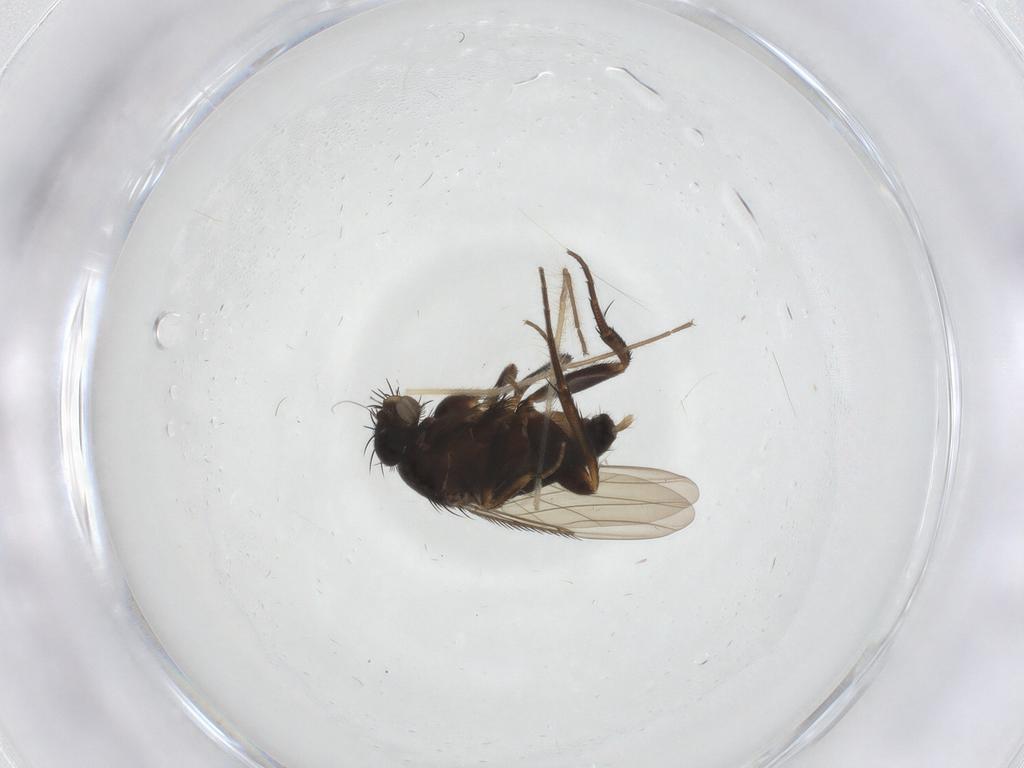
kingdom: Animalia
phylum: Arthropoda
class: Insecta
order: Diptera
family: Phoridae
